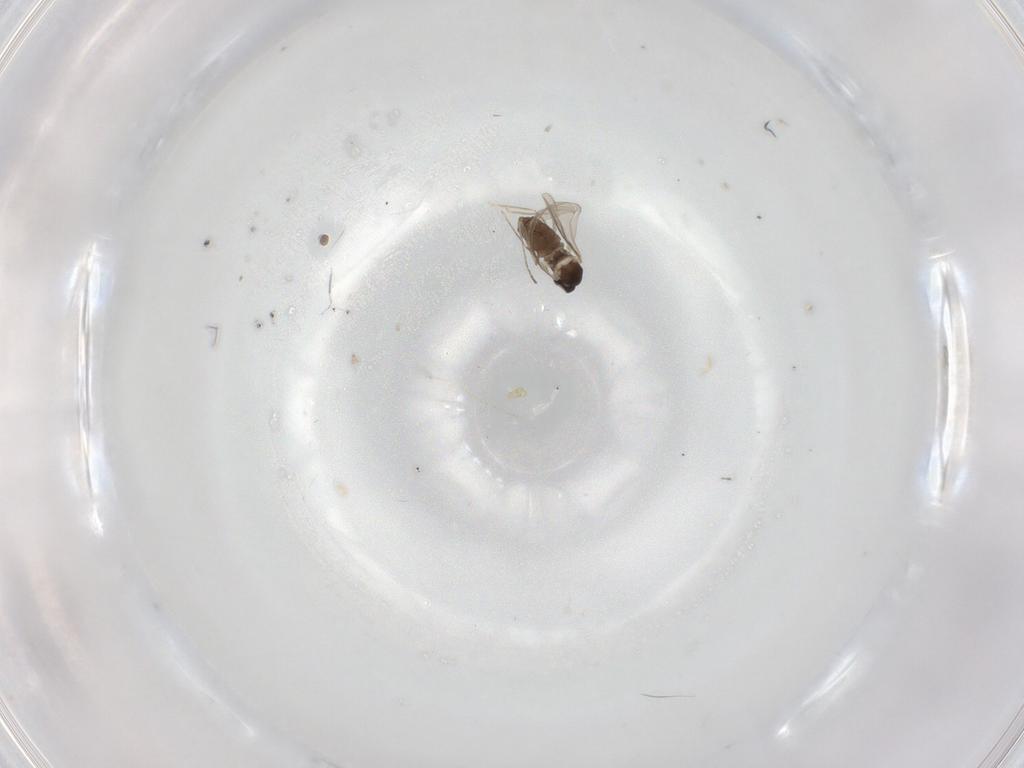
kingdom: Animalia
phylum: Arthropoda
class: Insecta
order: Diptera
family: Cecidomyiidae
